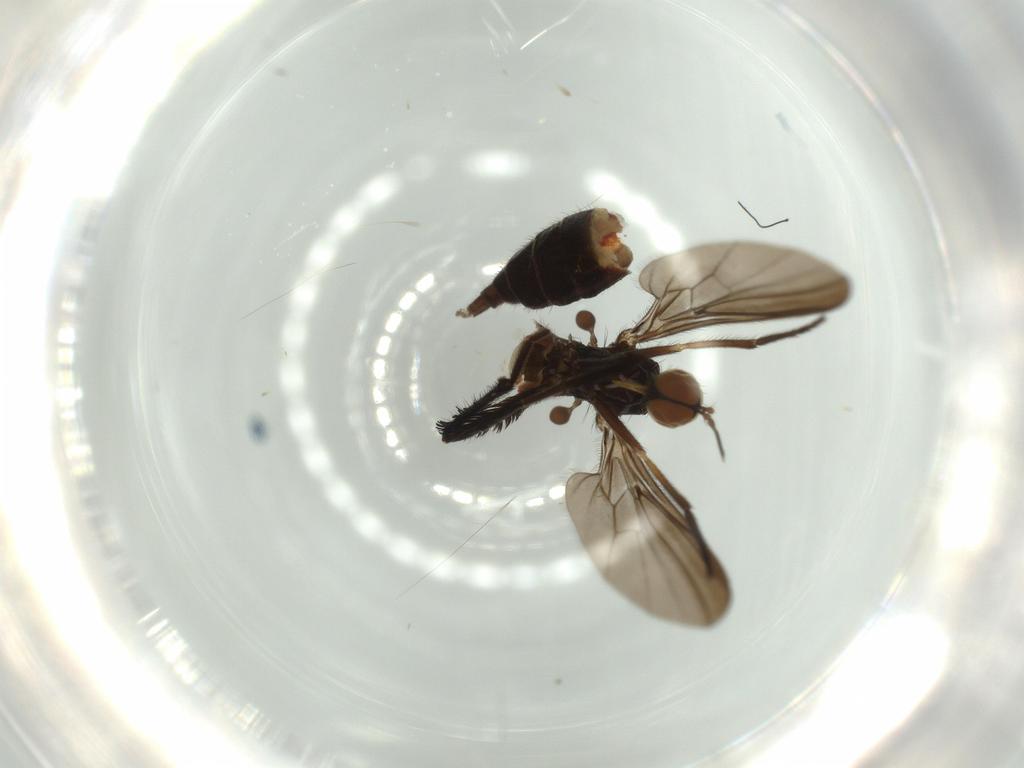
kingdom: Animalia
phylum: Arthropoda
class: Insecta
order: Diptera
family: Empididae
